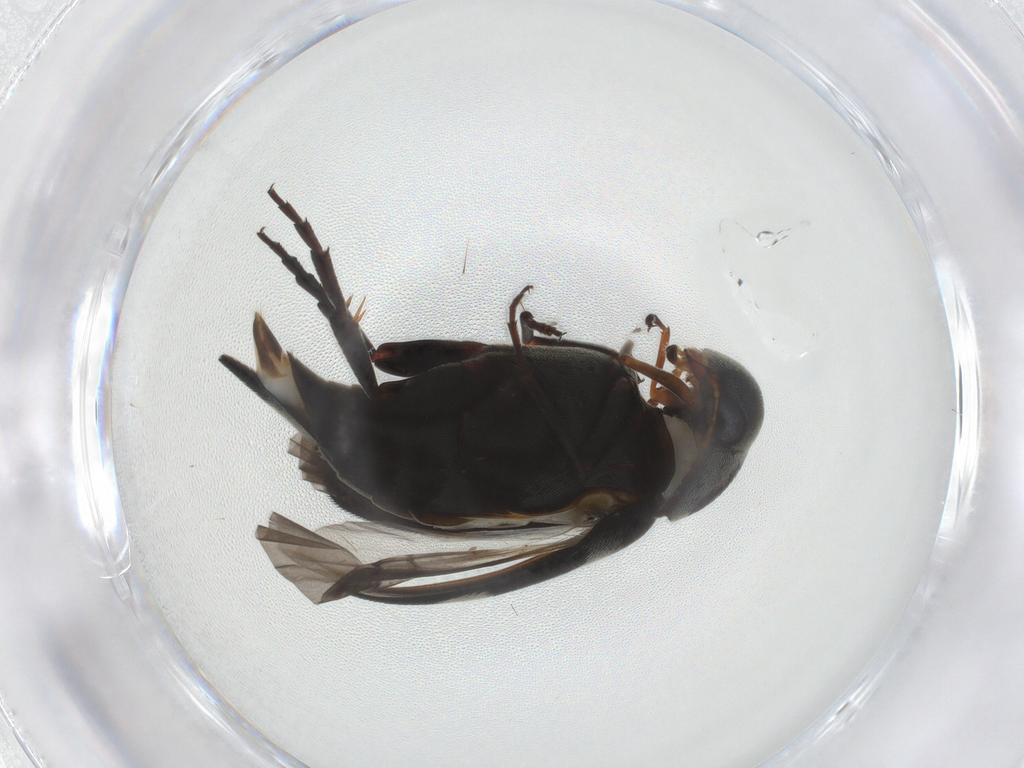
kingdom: Animalia
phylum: Arthropoda
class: Insecta
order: Coleoptera
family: Mordellidae
